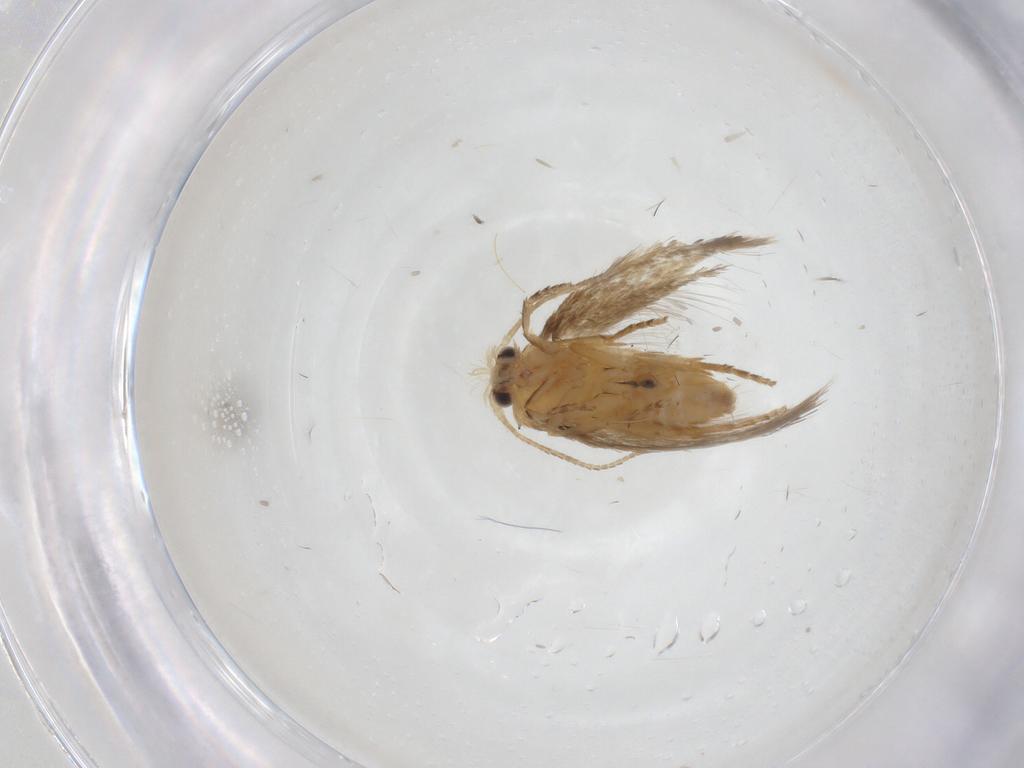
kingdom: Animalia
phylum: Arthropoda
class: Insecta
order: Lepidoptera
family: Nepticulidae
